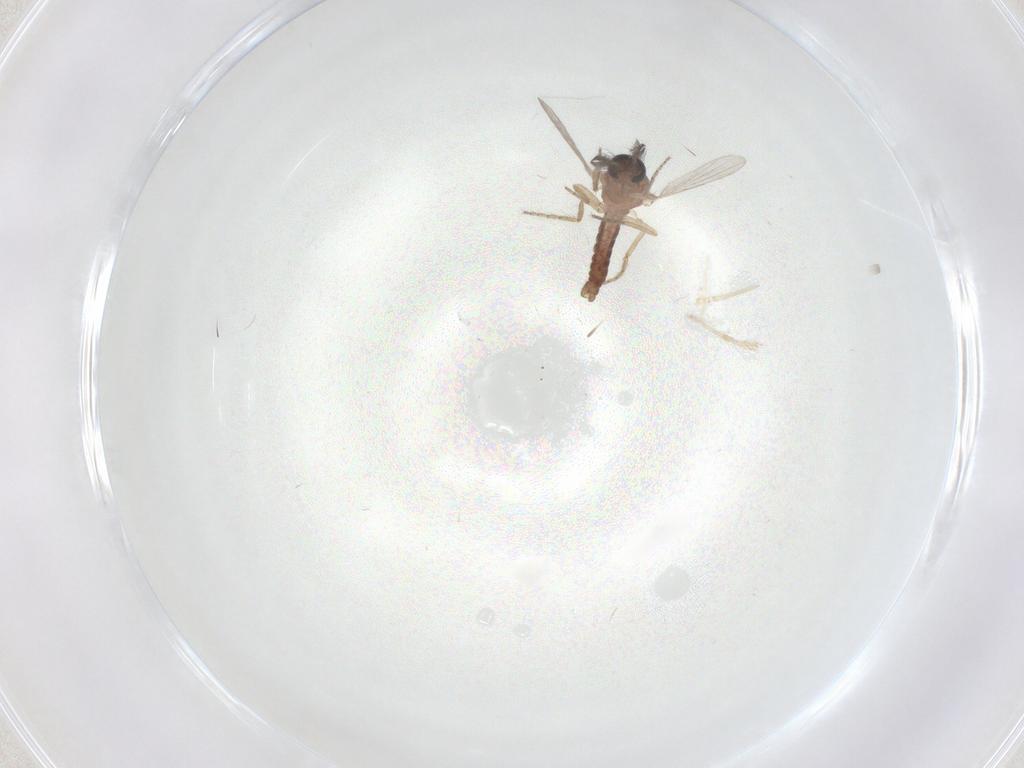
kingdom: Animalia
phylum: Arthropoda
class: Insecta
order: Diptera
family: Ceratopogonidae
